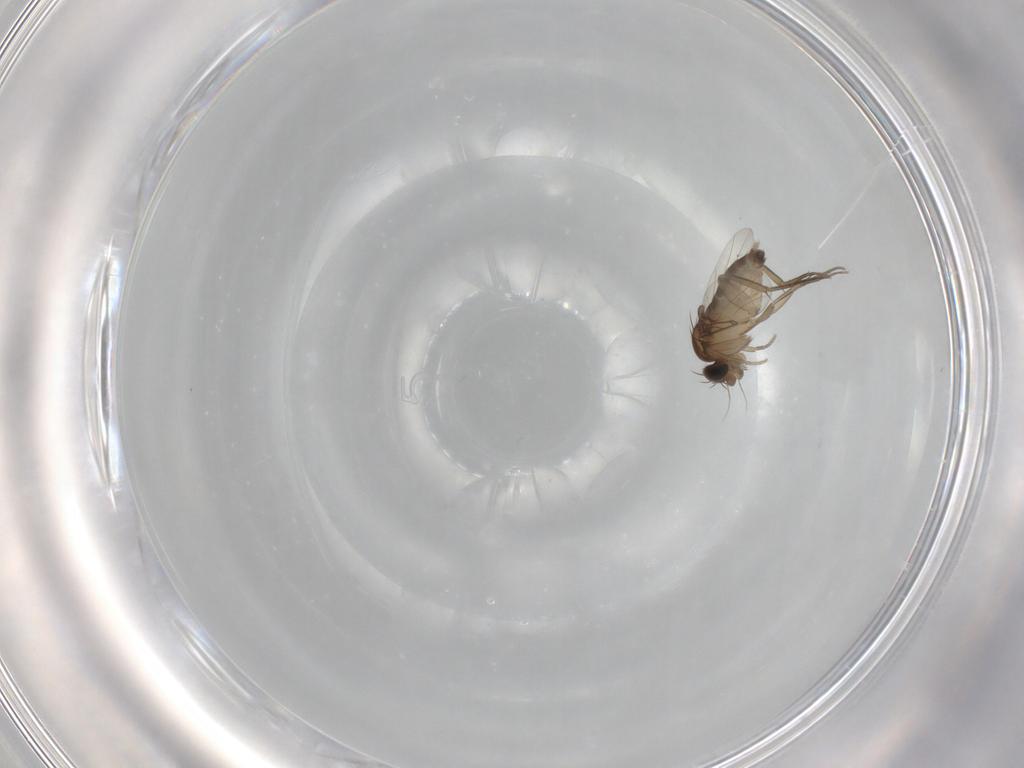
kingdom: Animalia
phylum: Arthropoda
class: Insecta
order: Diptera
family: Phoridae
